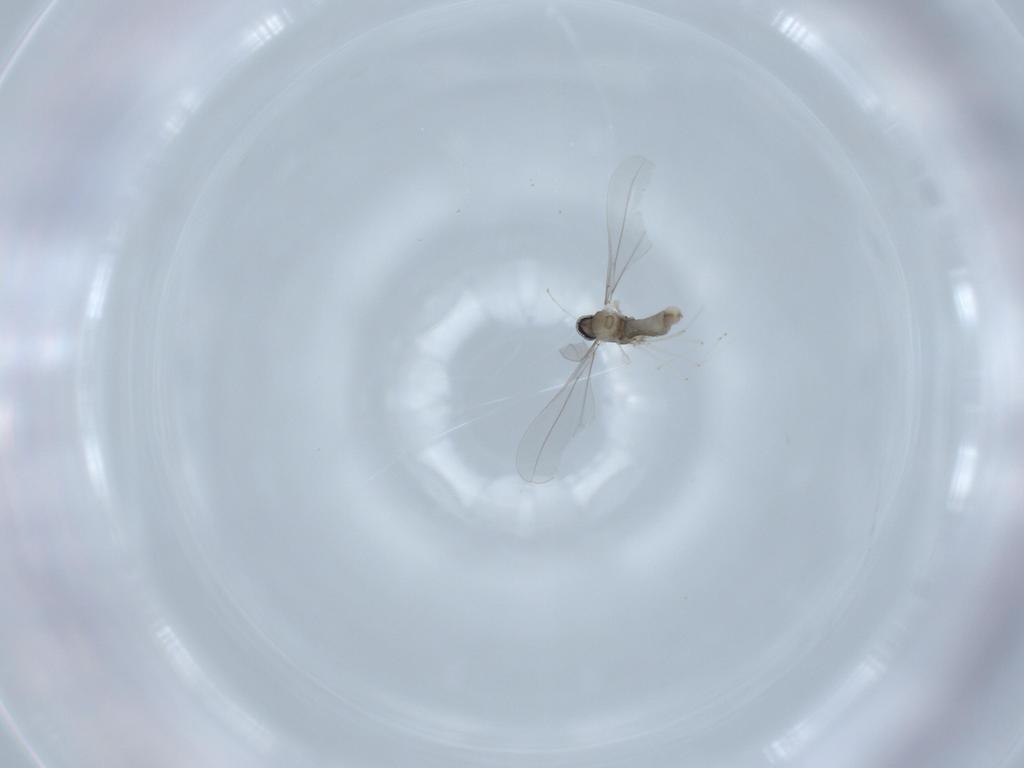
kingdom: Animalia
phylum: Arthropoda
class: Insecta
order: Diptera
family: Cecidomyiidae
